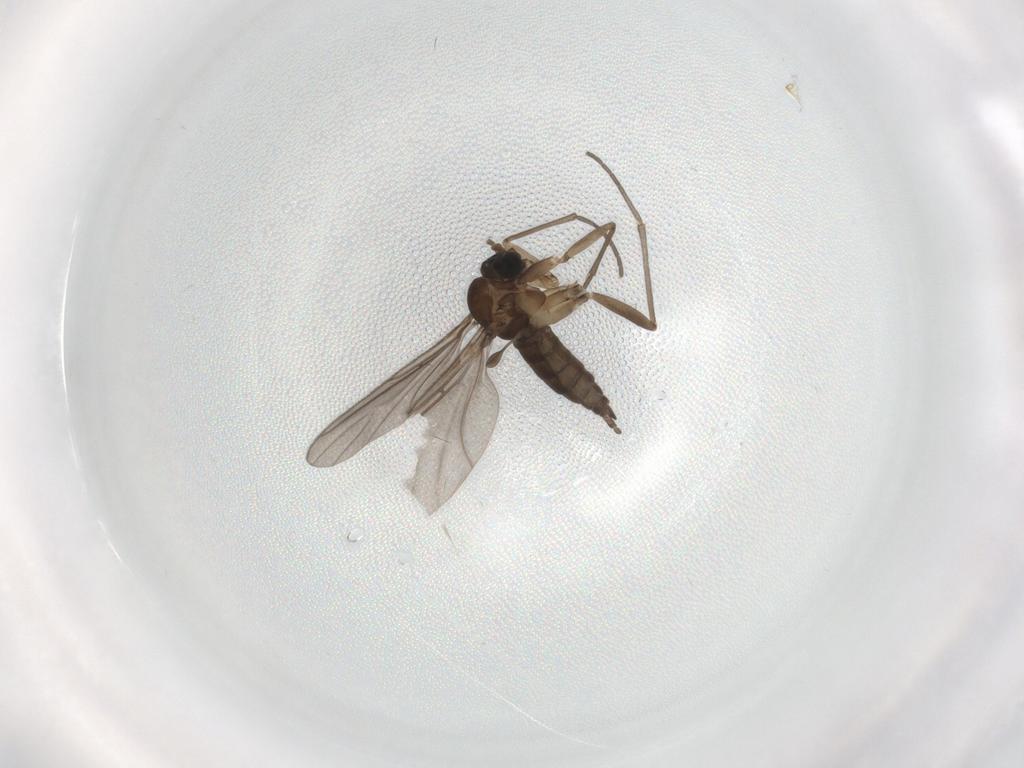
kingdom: Animalia
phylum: Arthropoda
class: Insecta
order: Diptera
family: Sciaridae
